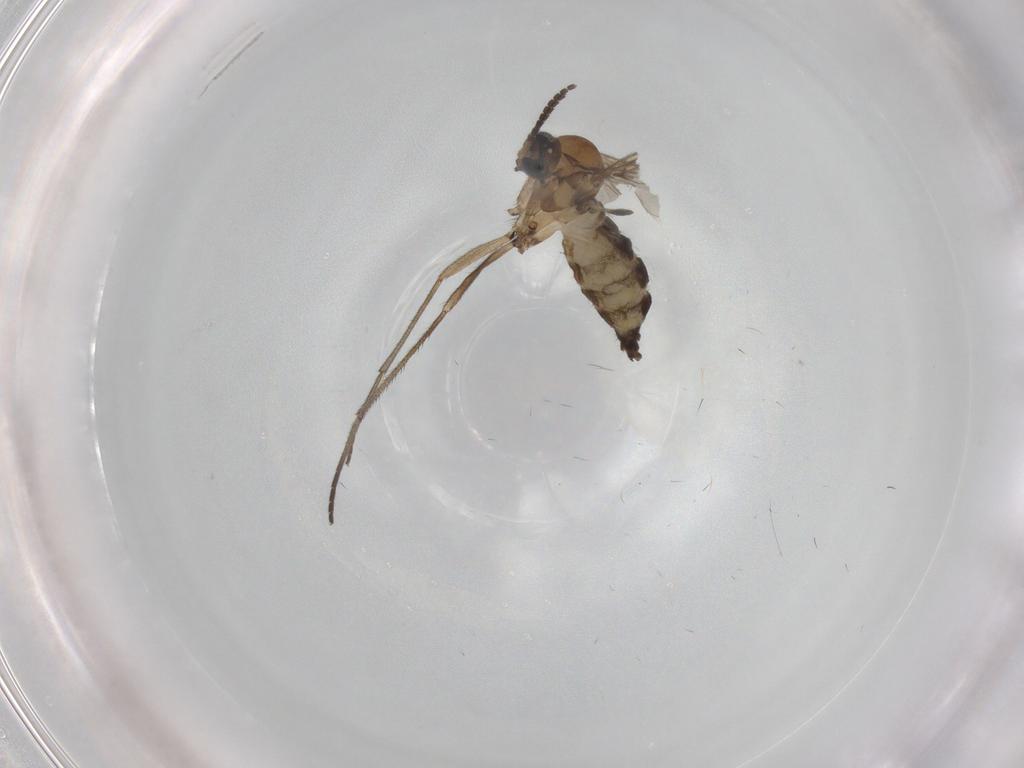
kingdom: Animalia
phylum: Arthropoda
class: Insecta
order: Diptera
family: Sciaridae
